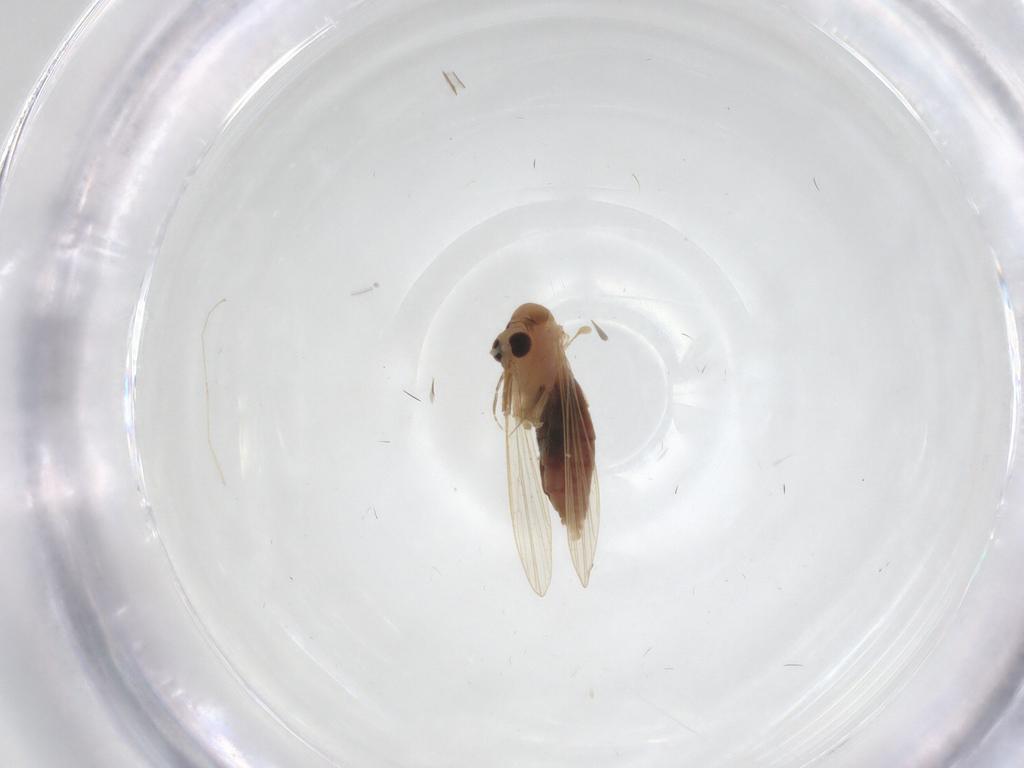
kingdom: Animalia
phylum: Arthropoda
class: Insecta
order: Diptera
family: Psychodidae
